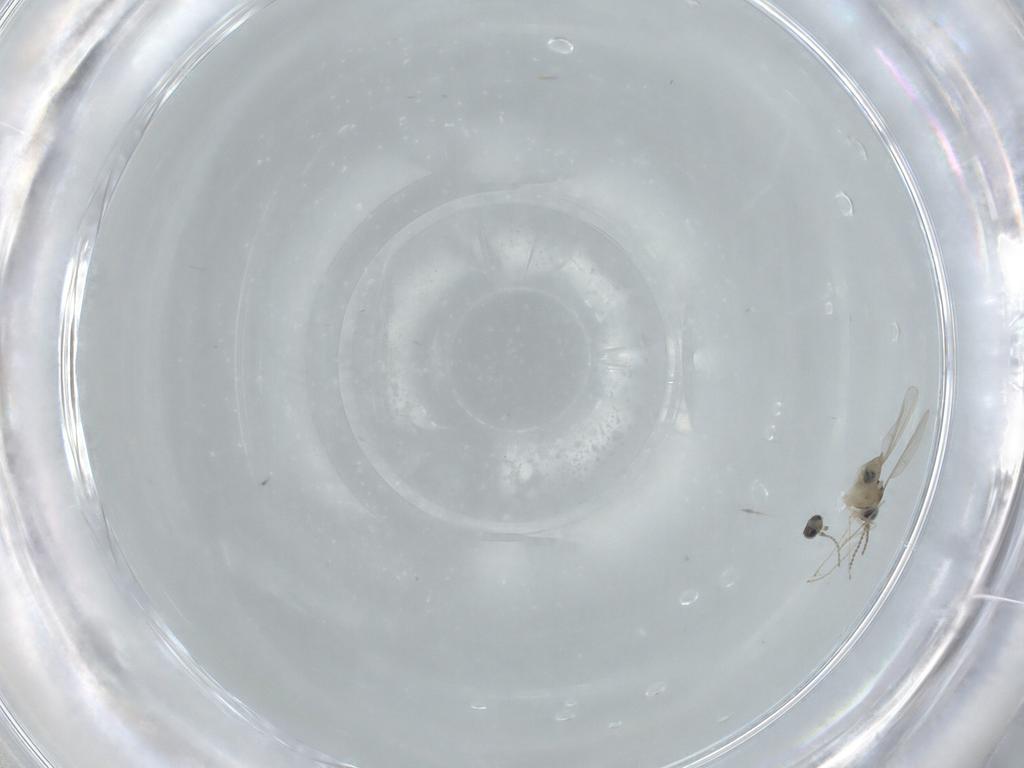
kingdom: Animalia
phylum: Arthropoda
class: Insecta
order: Diptera
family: Cecidomyiidae
